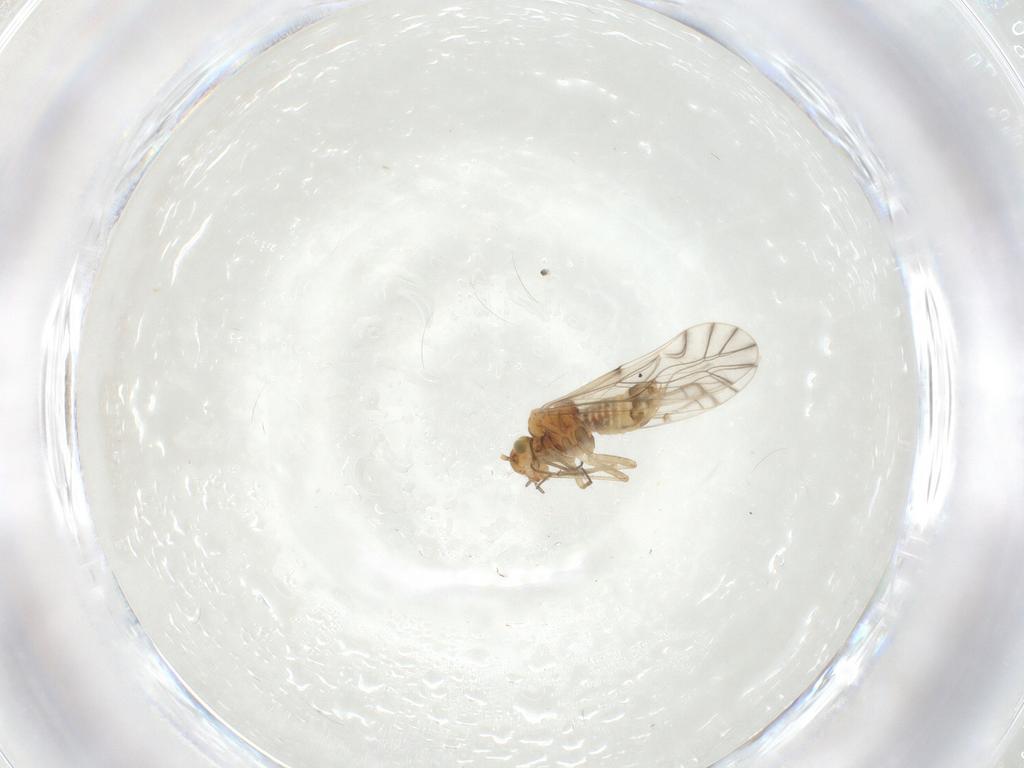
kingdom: Animalia
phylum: Arthropoda
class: Insecta
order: Psocodea
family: Lachesillidae
